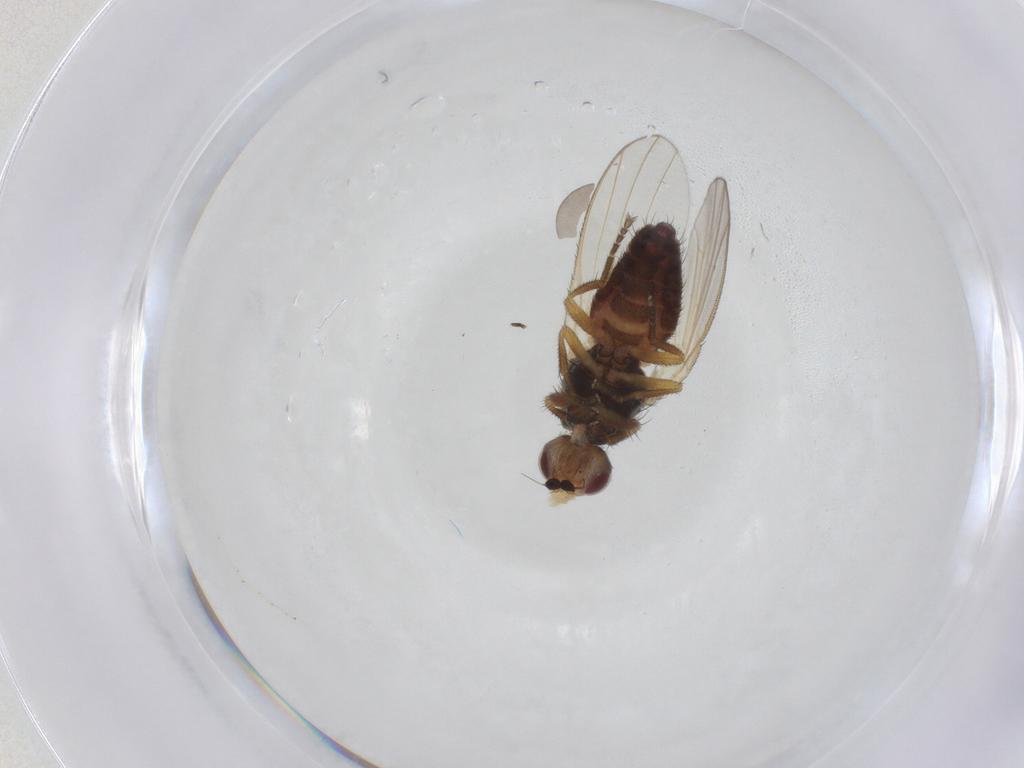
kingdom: Animalia
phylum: Arthropoda
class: Insecta
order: Diptera
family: Heleomyzidae
